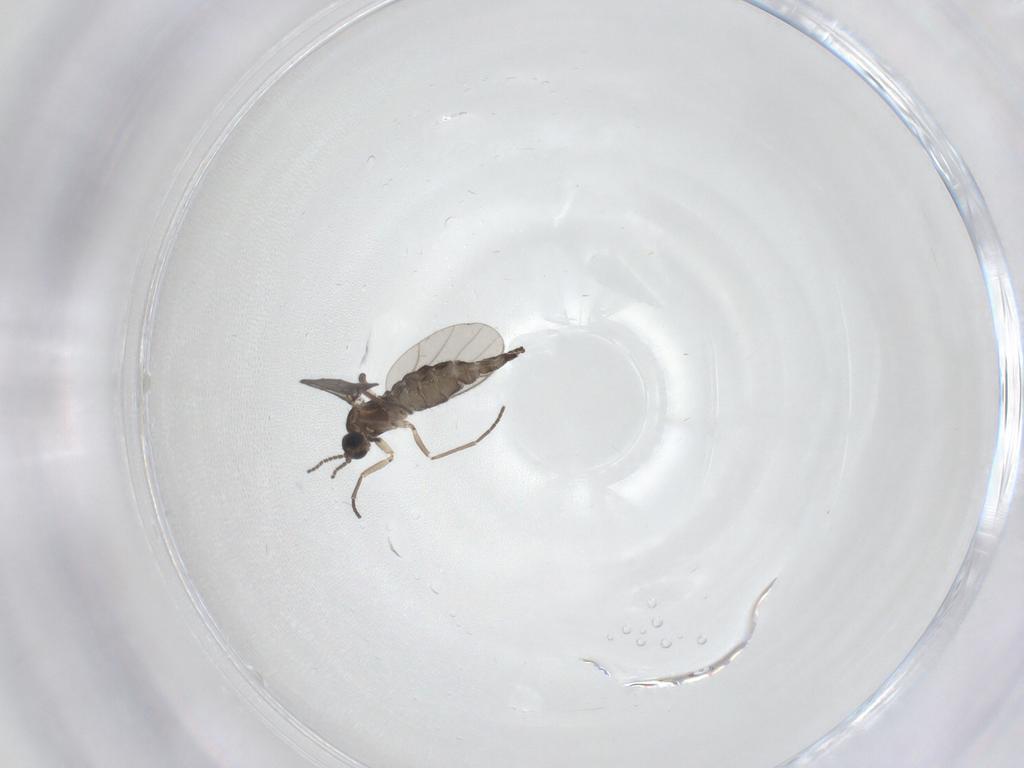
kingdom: Animalia
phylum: Arthropoda
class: Insecta
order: Diptera
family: Sciaridae
